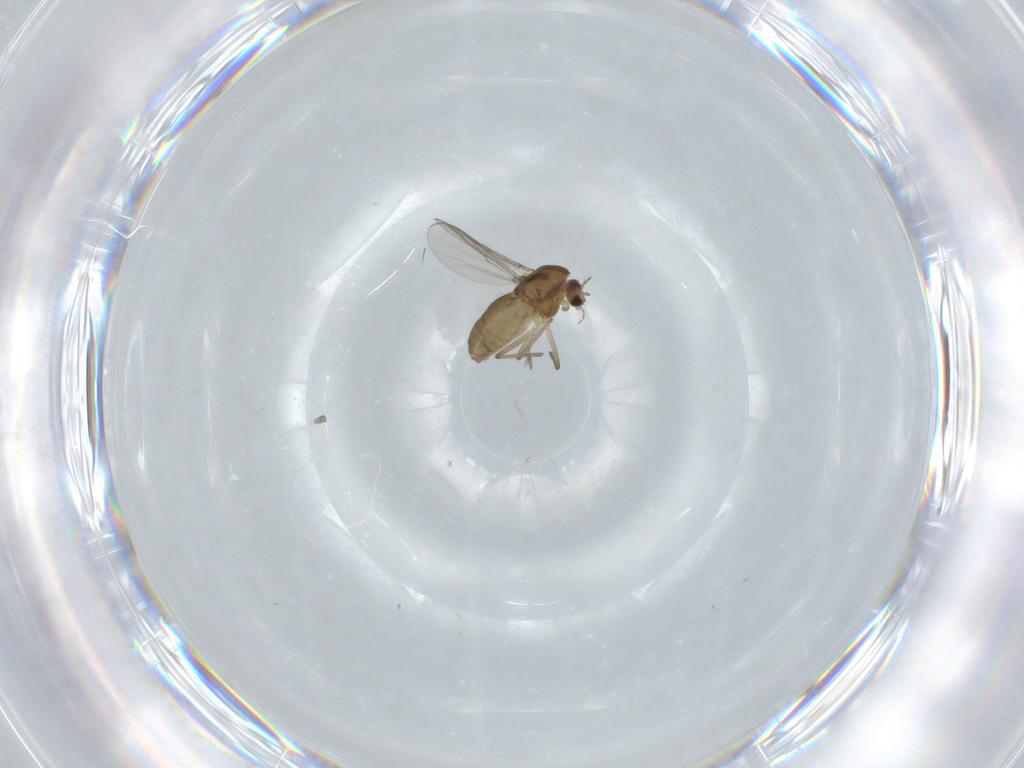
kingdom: Animalia
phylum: Arthropoda
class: Insecta
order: Diptera
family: Chironomidae
